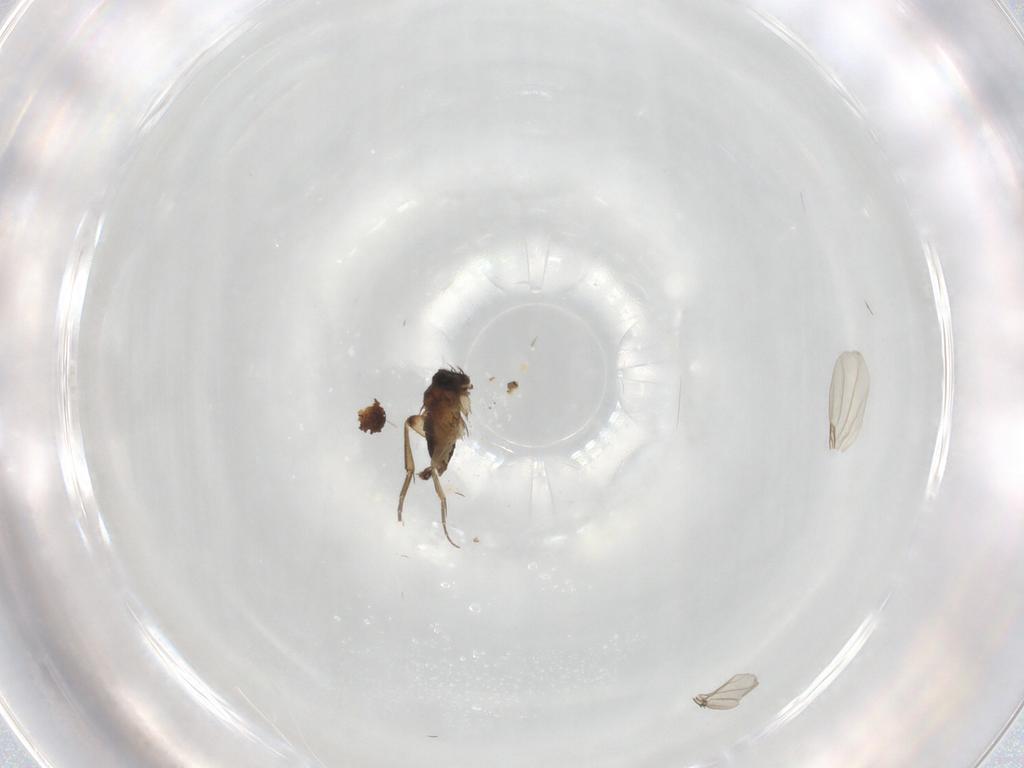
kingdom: Animalia
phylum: Arthropoda
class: Insecta
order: Diptera
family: Glossinidae
